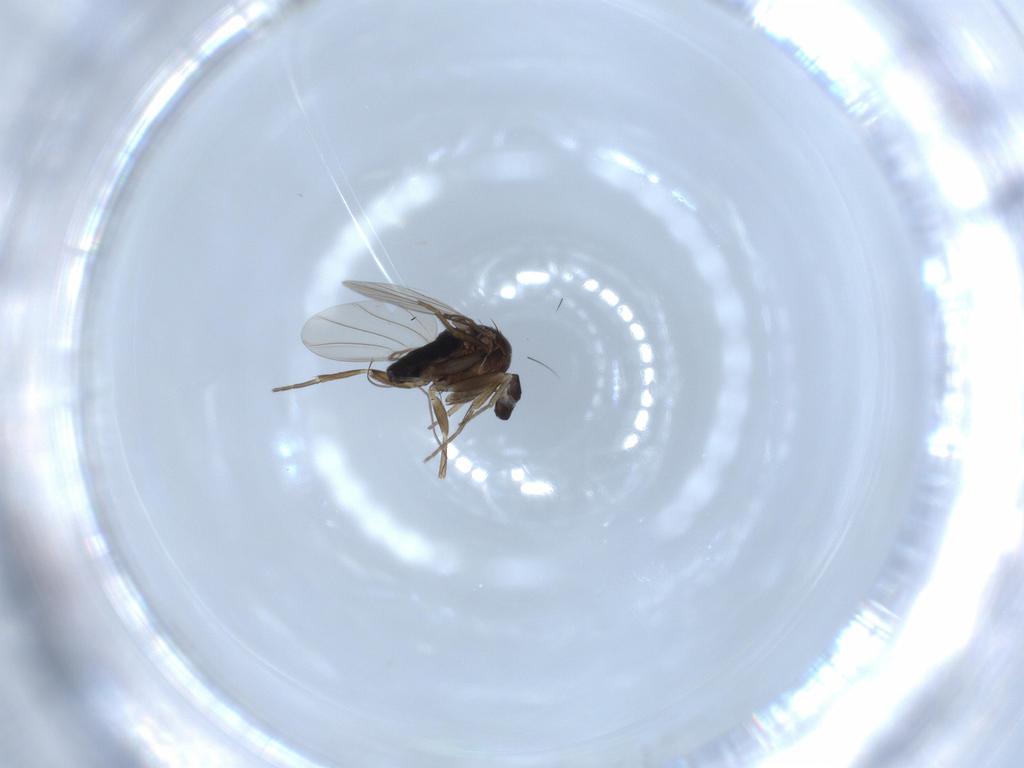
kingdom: Animalia
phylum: Arthropoda
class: Insecta
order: Diptera
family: Phoridae
